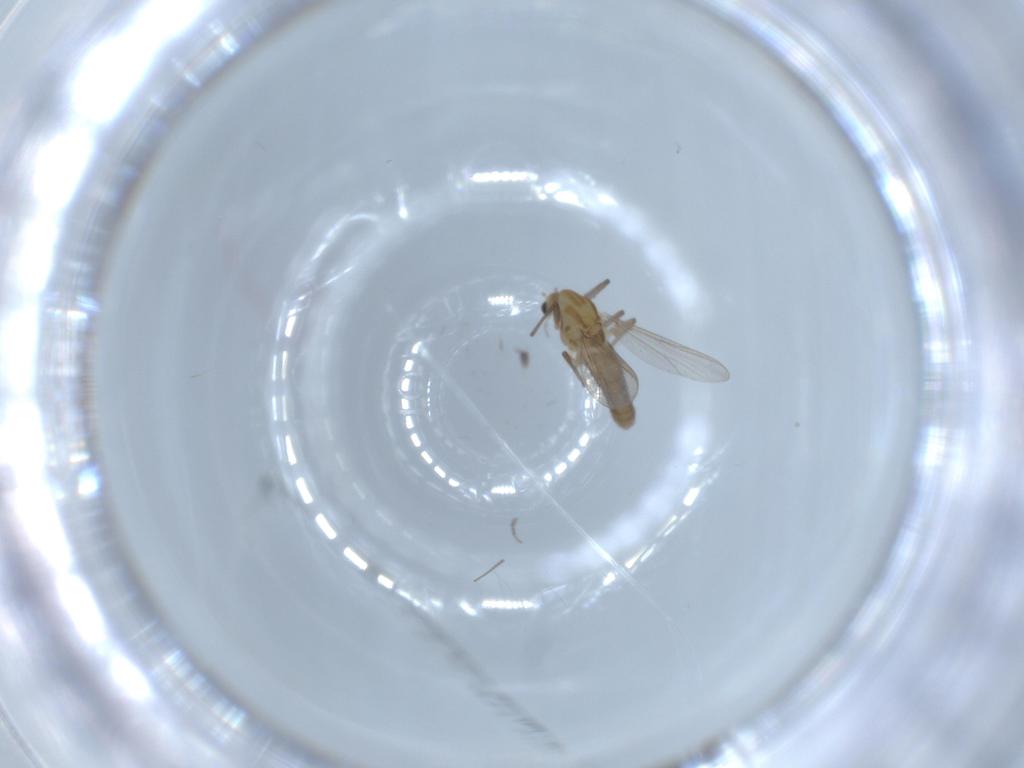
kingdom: Animalia
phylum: Arthropoda
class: Insecta
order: Diptera
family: Chironomidae
